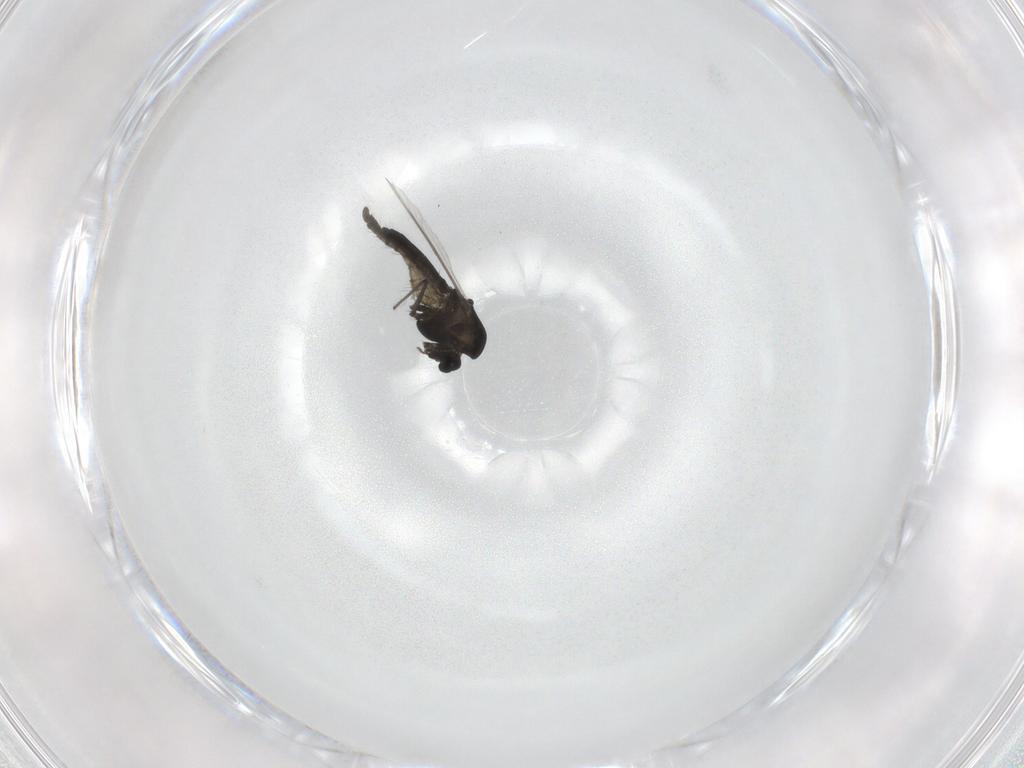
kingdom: Animalia
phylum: Arthropoda
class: Insecta
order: Diptera
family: Chironomidae
